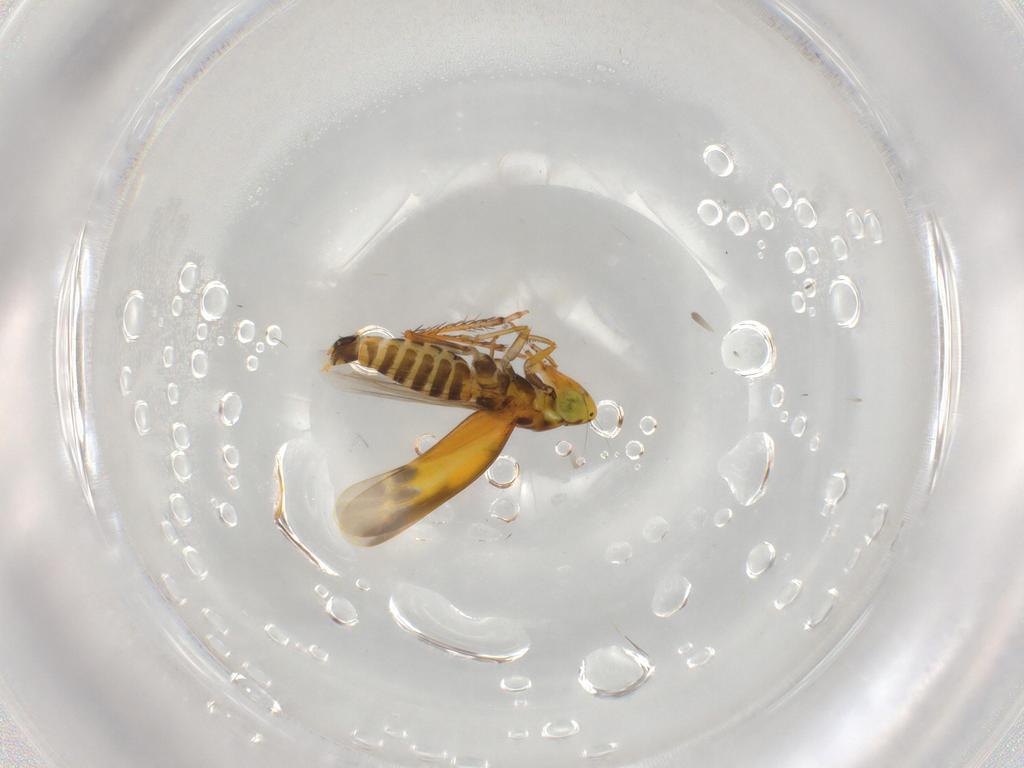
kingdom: Animalia
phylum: Arthropoda
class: Insecta
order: Hemiptera
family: Cicadellidae
